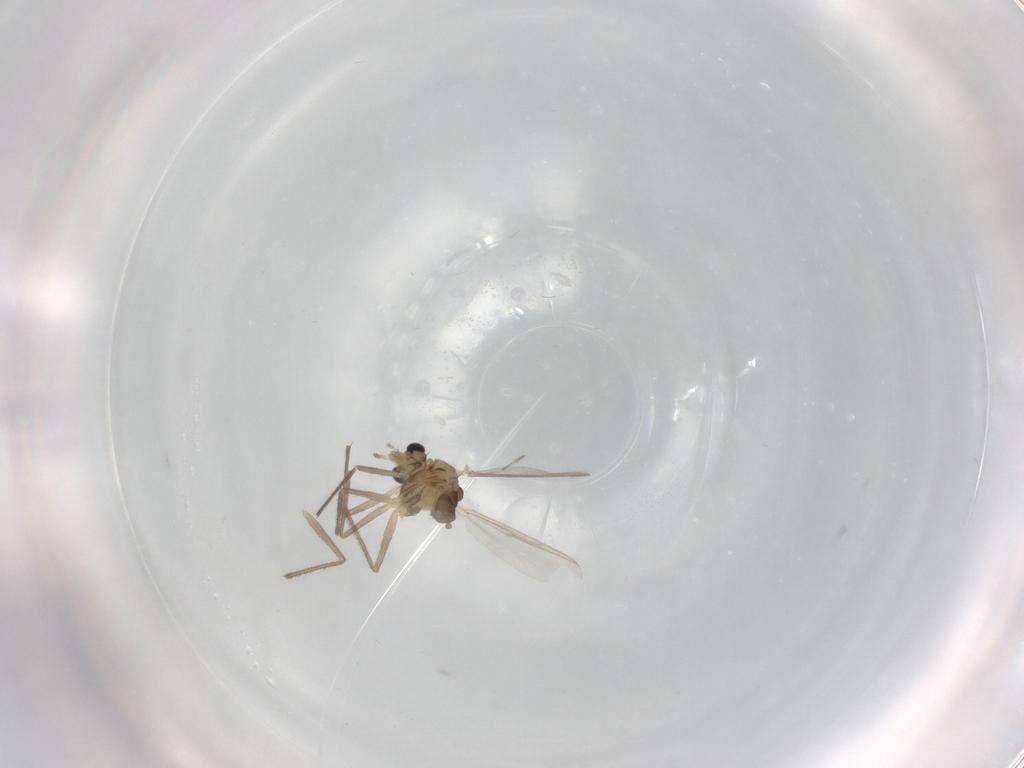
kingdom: Animalia
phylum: Arthropoda
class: Insecta
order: Diptera
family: Chironomidae
